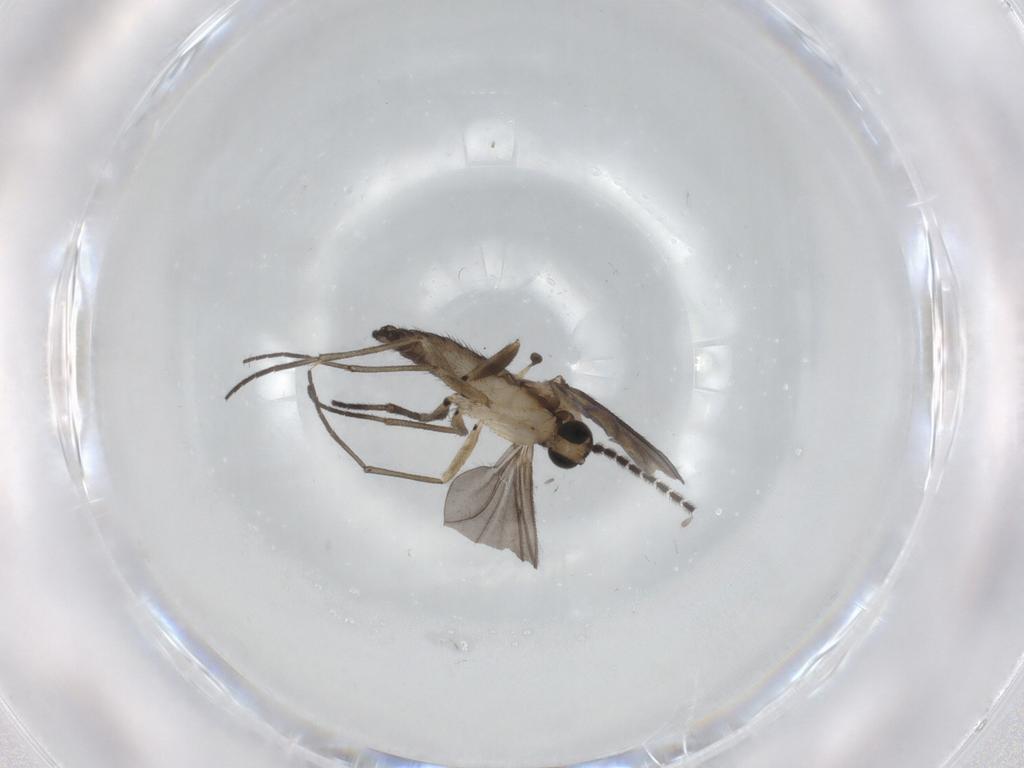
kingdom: Animalia
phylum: Arthropoda
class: Insecta
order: Diptera
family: Sciaridae
